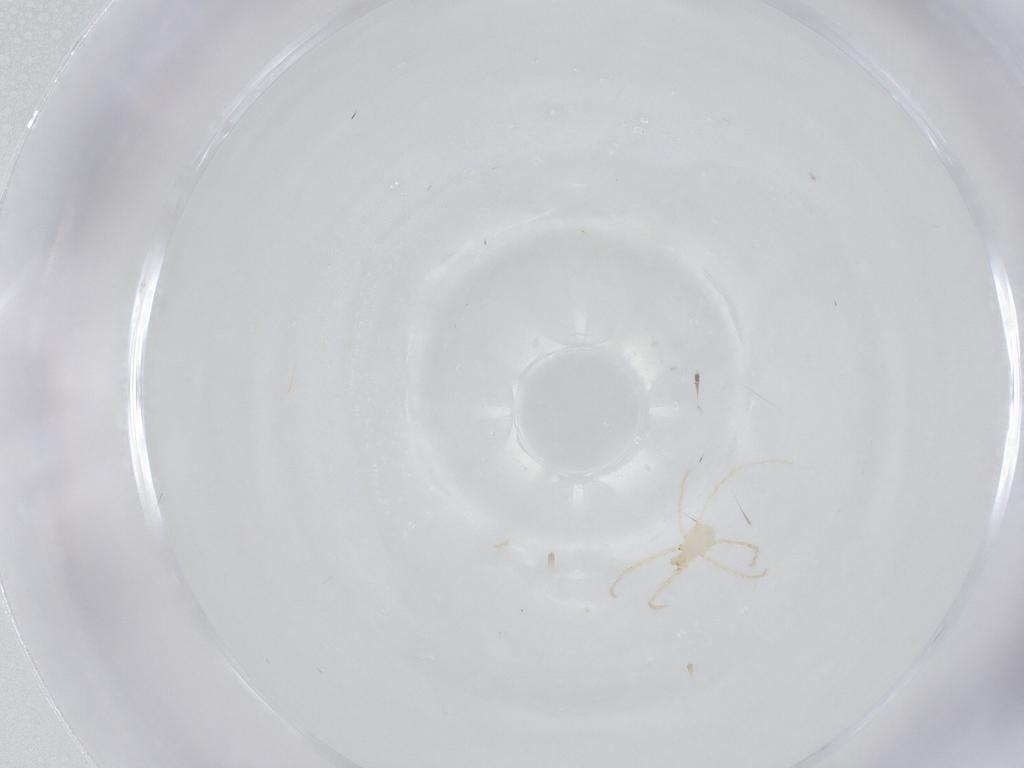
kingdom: Animalia
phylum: Arthropoda
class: Arachnida
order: Trombidiformes
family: Erythraeidae
